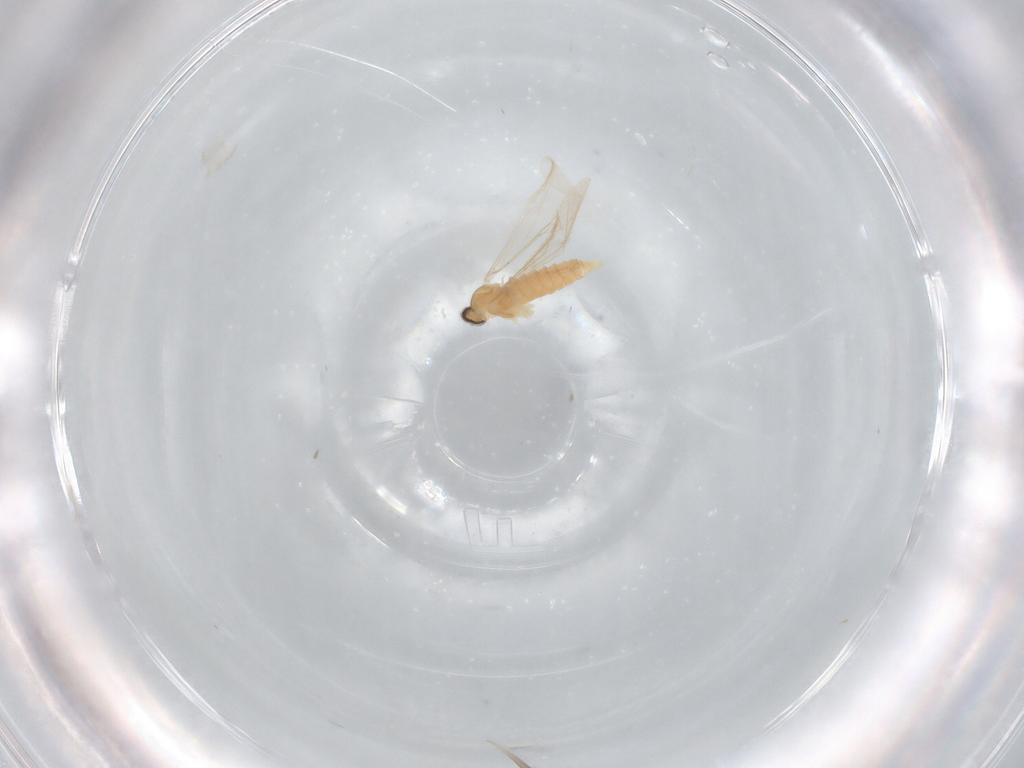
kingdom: Animalia
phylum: Arthropoda
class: Insecta
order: Diptera
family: Cecidomyiidae
